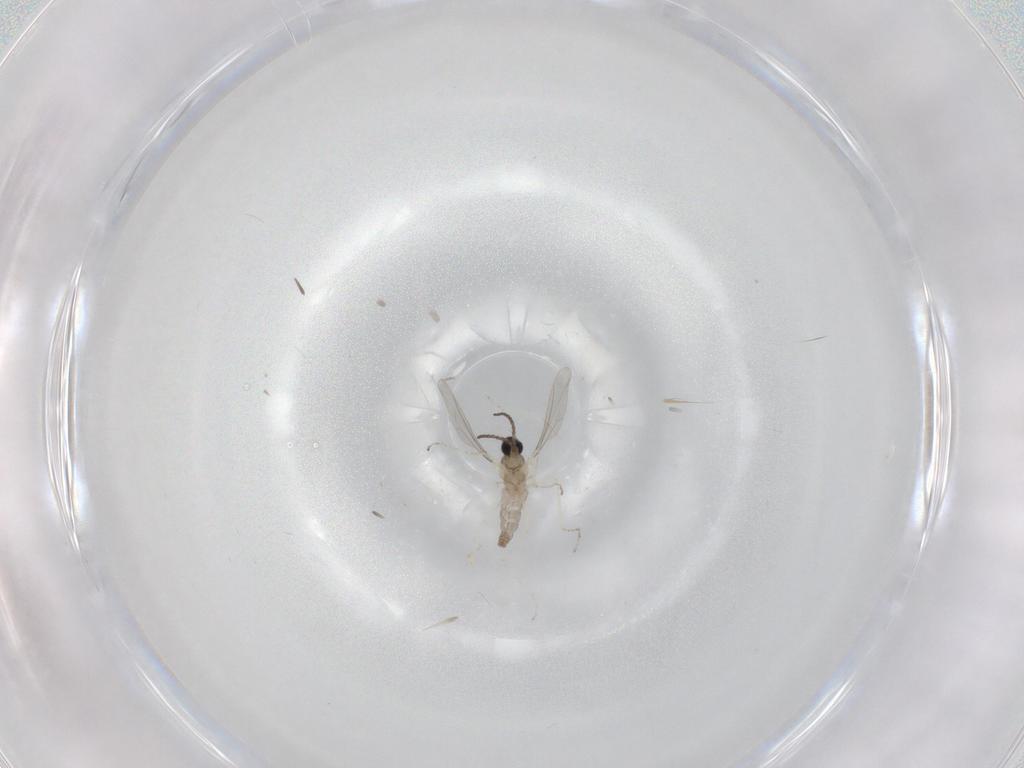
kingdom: Animalia
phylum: Arthropoda
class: Insecta
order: Diptera
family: Cecidomyiidae
